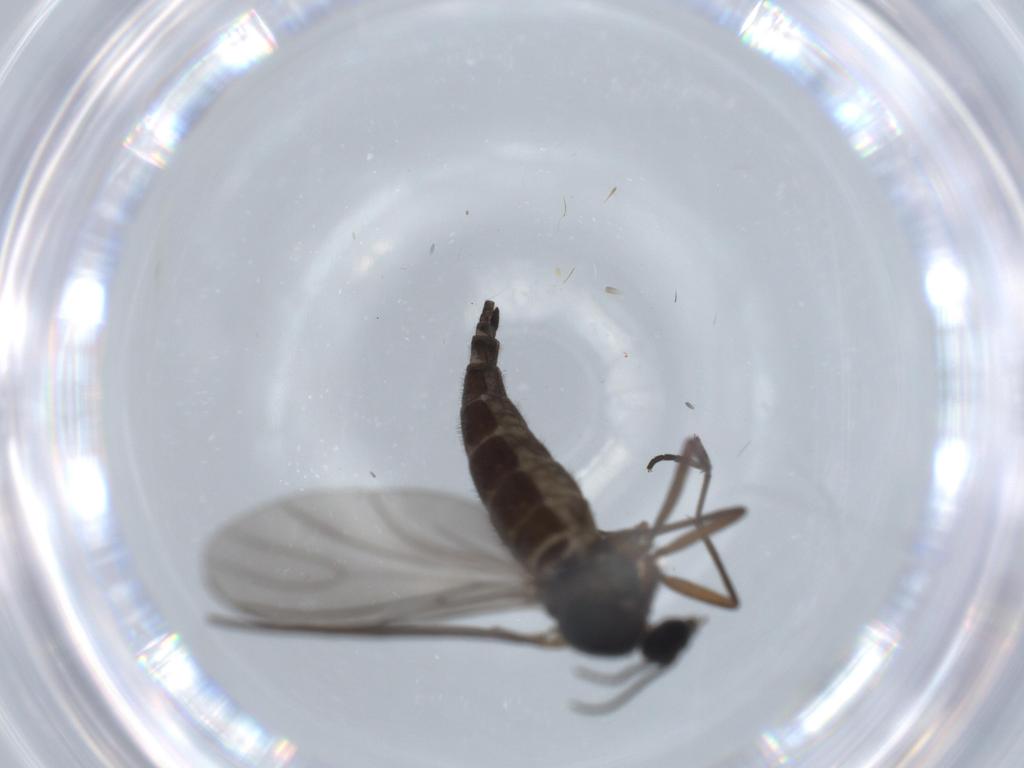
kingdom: Animalia
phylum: Arthropoda
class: Insecta
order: Diptera
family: Sciaridae
